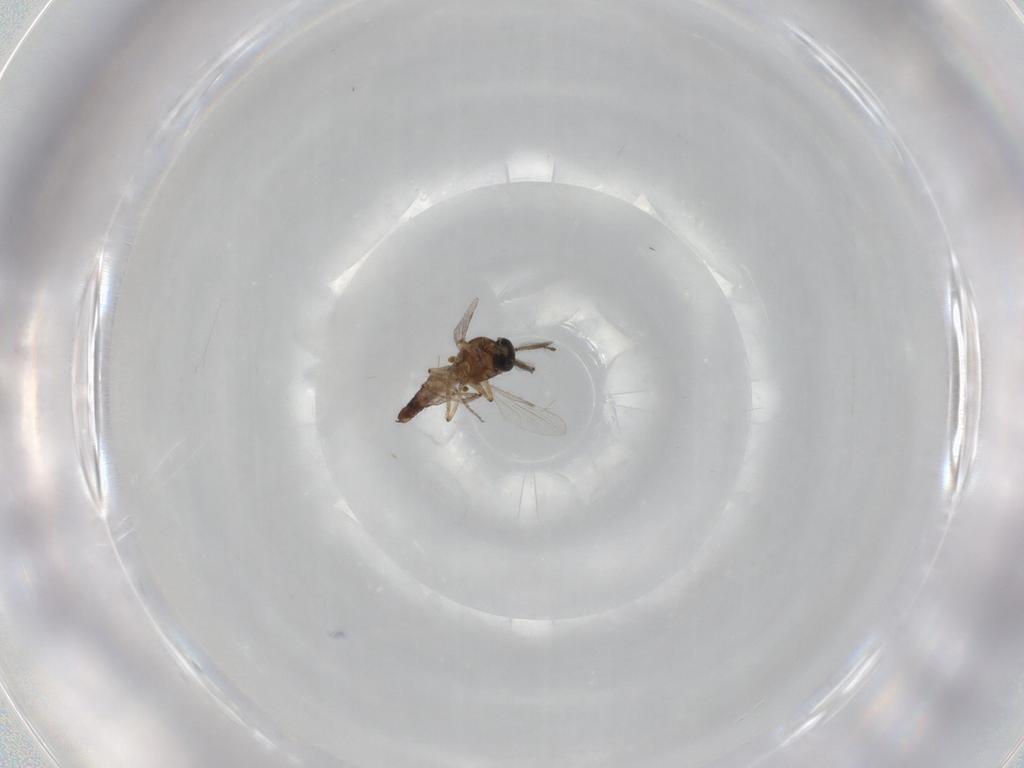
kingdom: Animalia
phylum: Arthropoda
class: Insecta
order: Diptera
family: Ceratopogonidae
